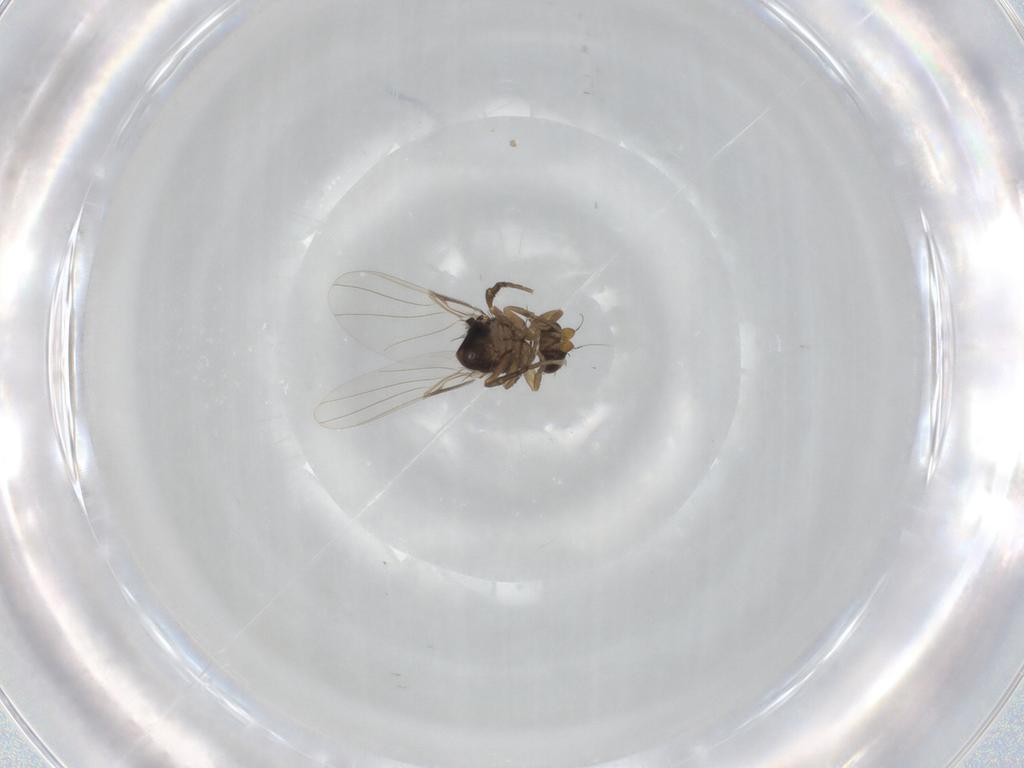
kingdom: Animalia
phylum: Arthropoda
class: Insecta
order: Diptera
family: Phoridae
